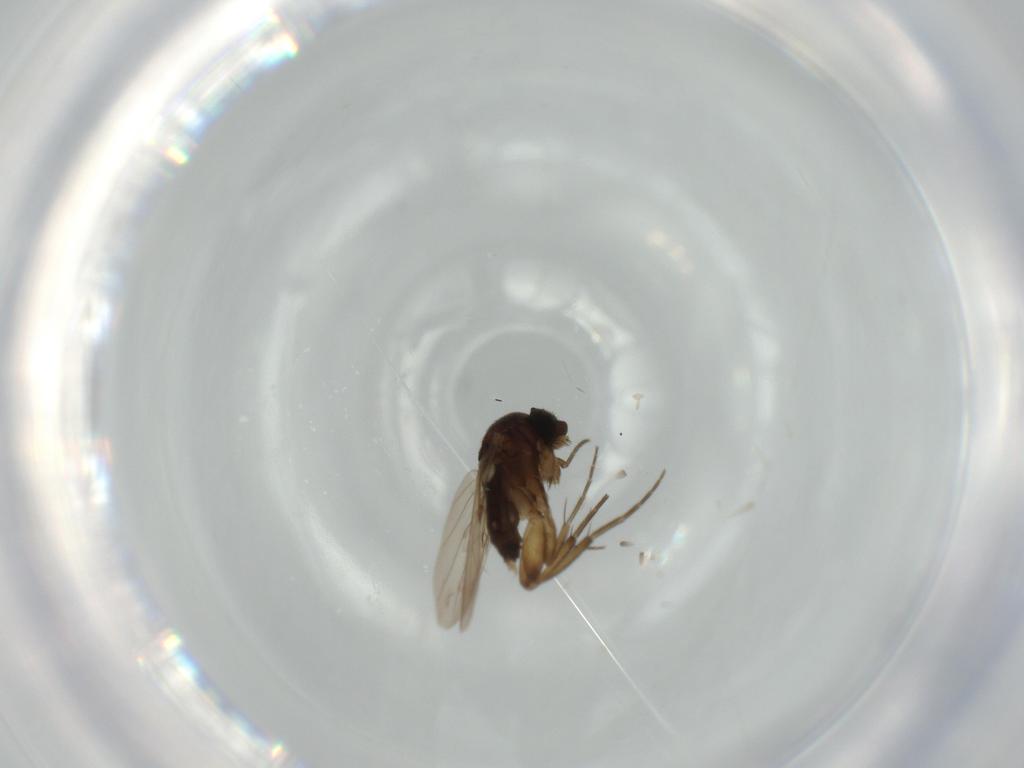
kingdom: Animalia
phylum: Arthropoda
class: Insecta
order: Diptera
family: Phoridae
